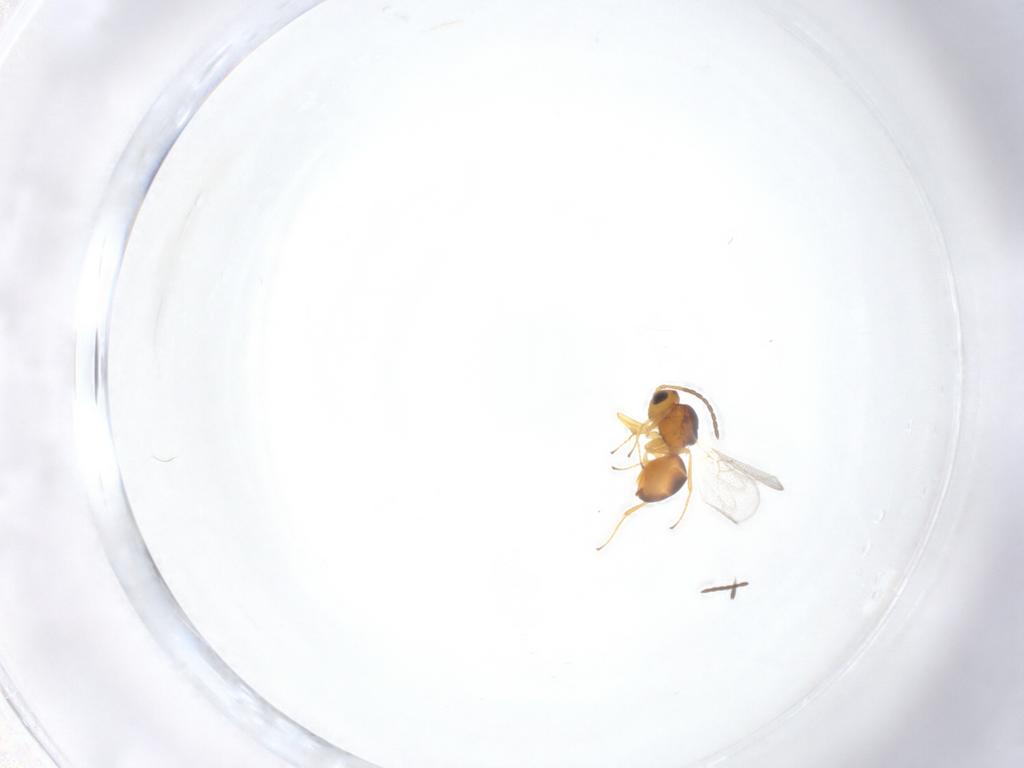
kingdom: Animalia
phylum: Arthropoda
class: Insecta
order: Hymenoptera
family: Figitidae
